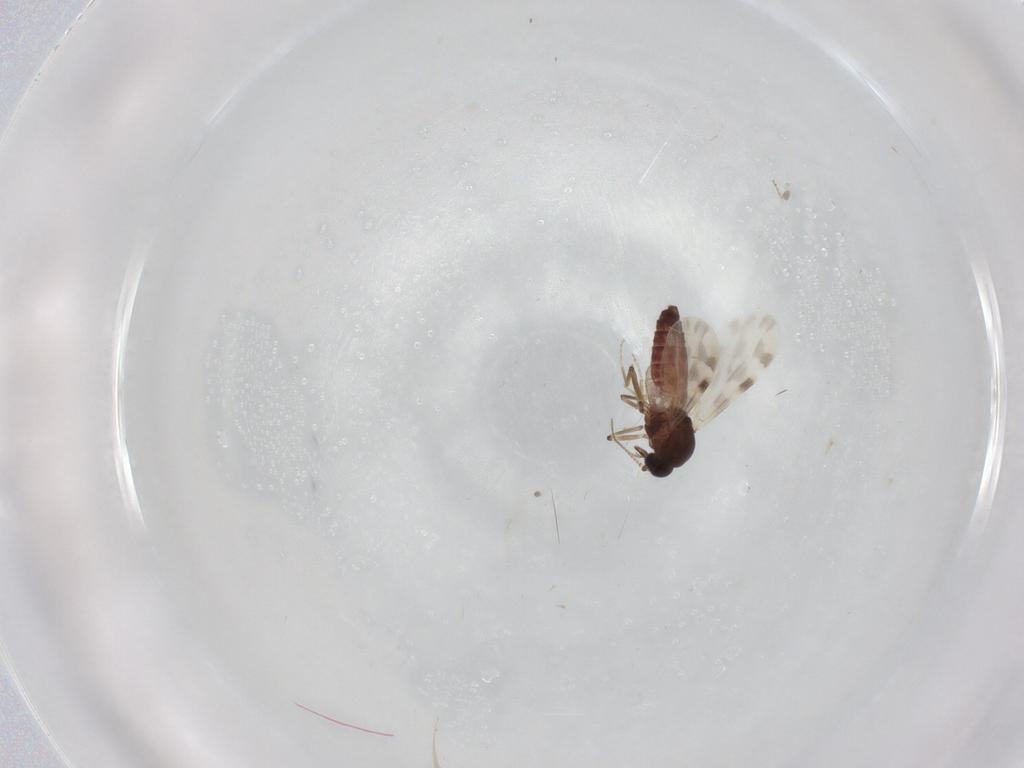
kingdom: Animalia
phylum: Arthropoda
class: Insecta
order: Diptera
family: Ceratopogonidae
